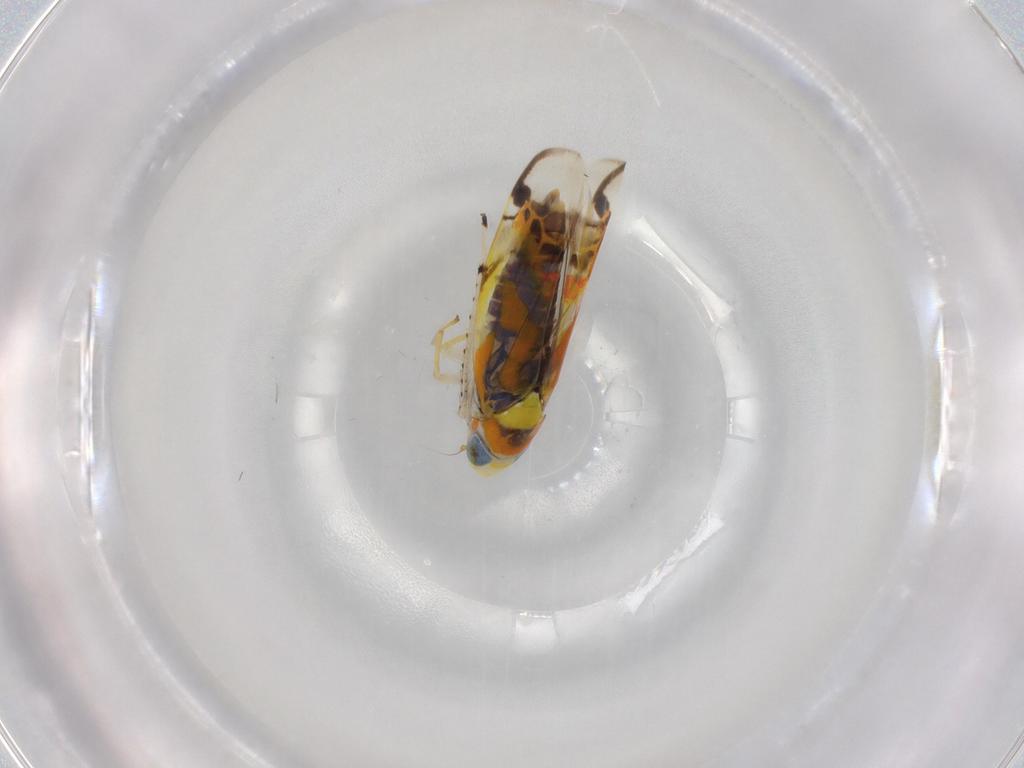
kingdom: Animalia
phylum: Arthropoda
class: Insecta
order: Hemiptera
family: Cicadellidae
